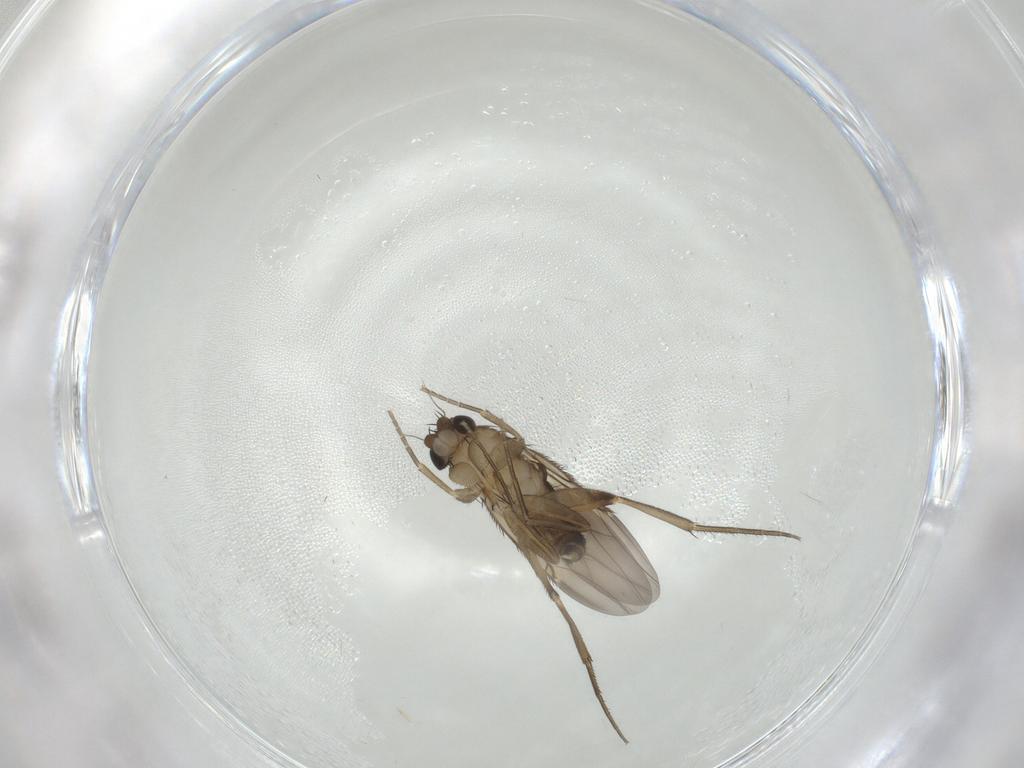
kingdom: Animalia
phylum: Arthropoda
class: Insecta
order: Diptera
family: Phoridae
